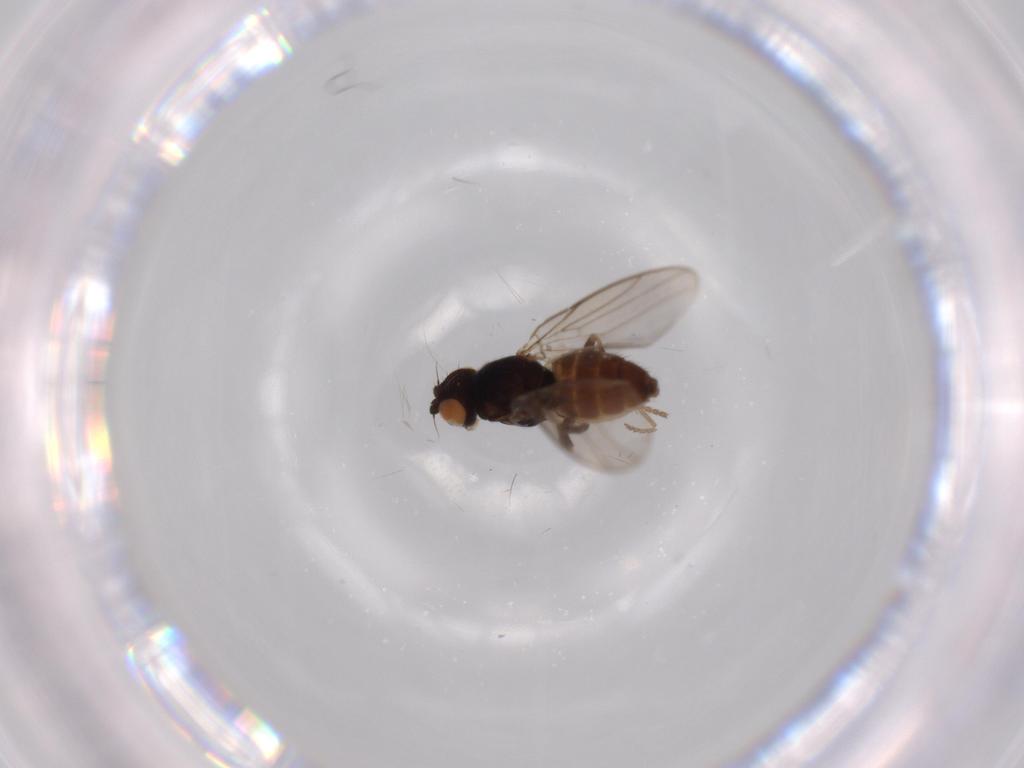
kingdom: Animalia
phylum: Arthropoda
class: Insecta
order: Diptera
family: Chloropidae
